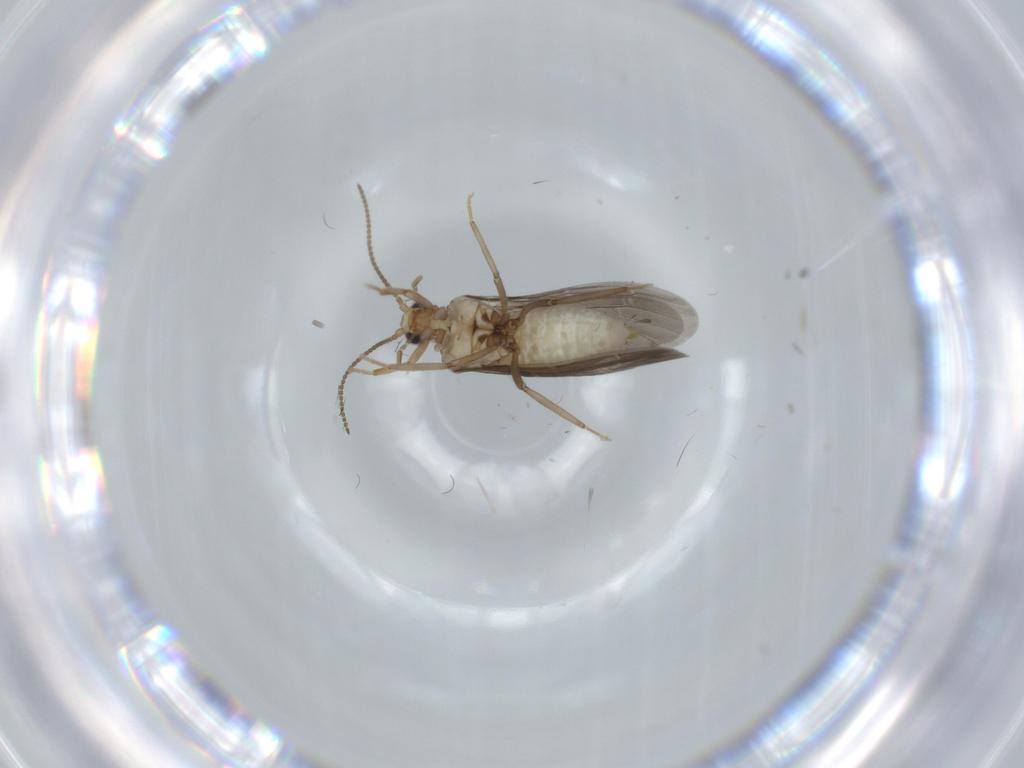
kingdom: Animalia
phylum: Arthropoda
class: Insecta
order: Neuroptera
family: Coniopterygidae
